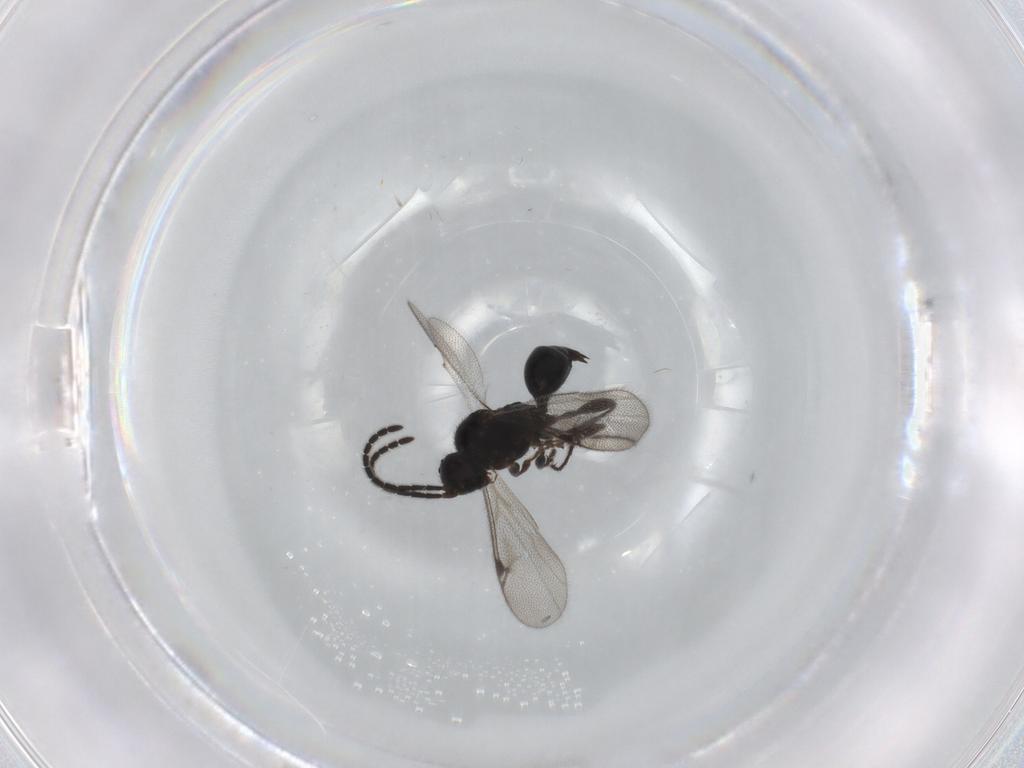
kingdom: Animalia
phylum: Arthropoda
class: Insecta
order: Hymenoptera
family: Proctotrupidae
